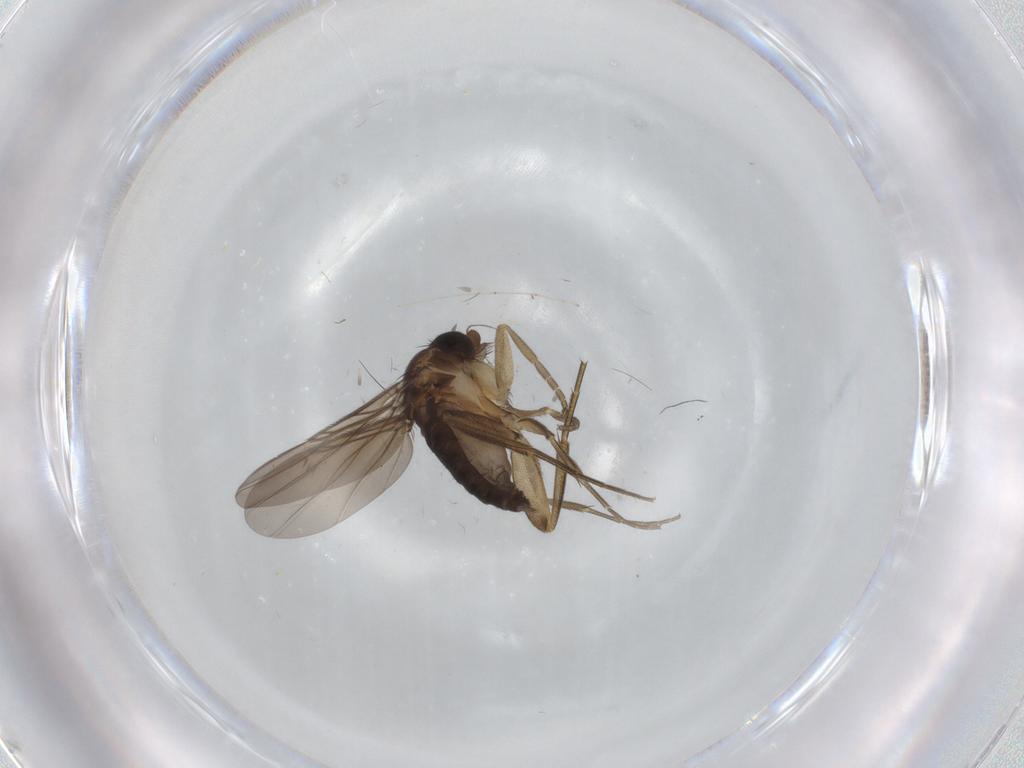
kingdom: Animalia
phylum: Arthropoda
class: Insecta
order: Diptera
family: Phoridae
